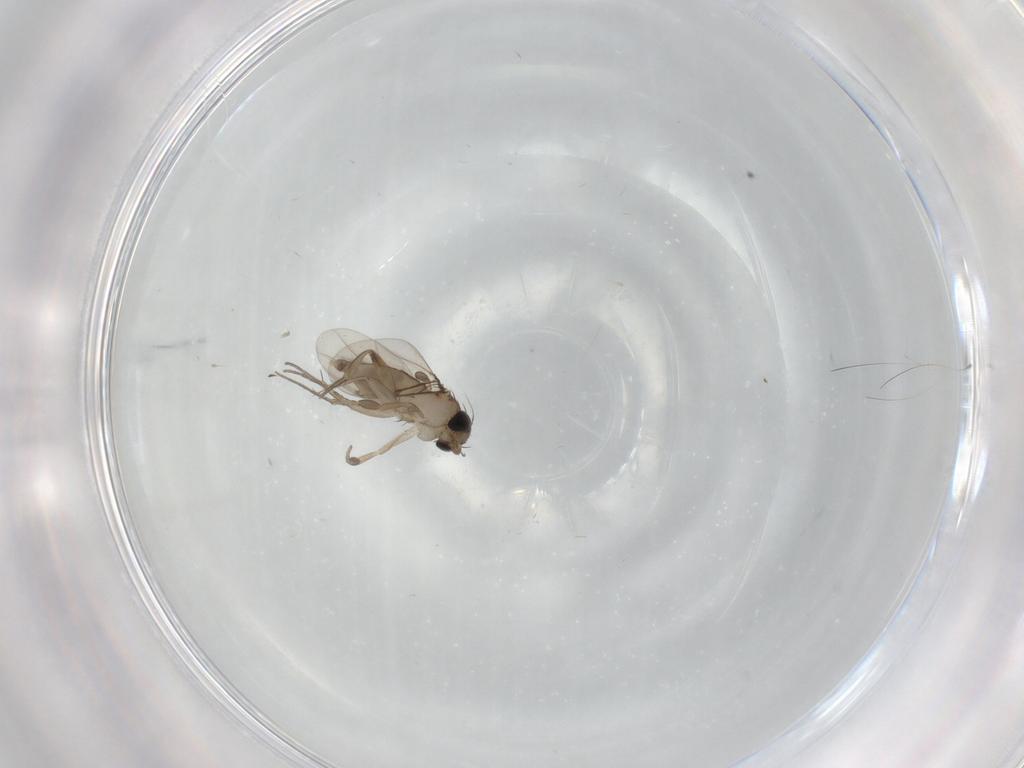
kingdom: Animalia
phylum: Arthropoda
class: Insecta
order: Diptera
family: Phoridae
